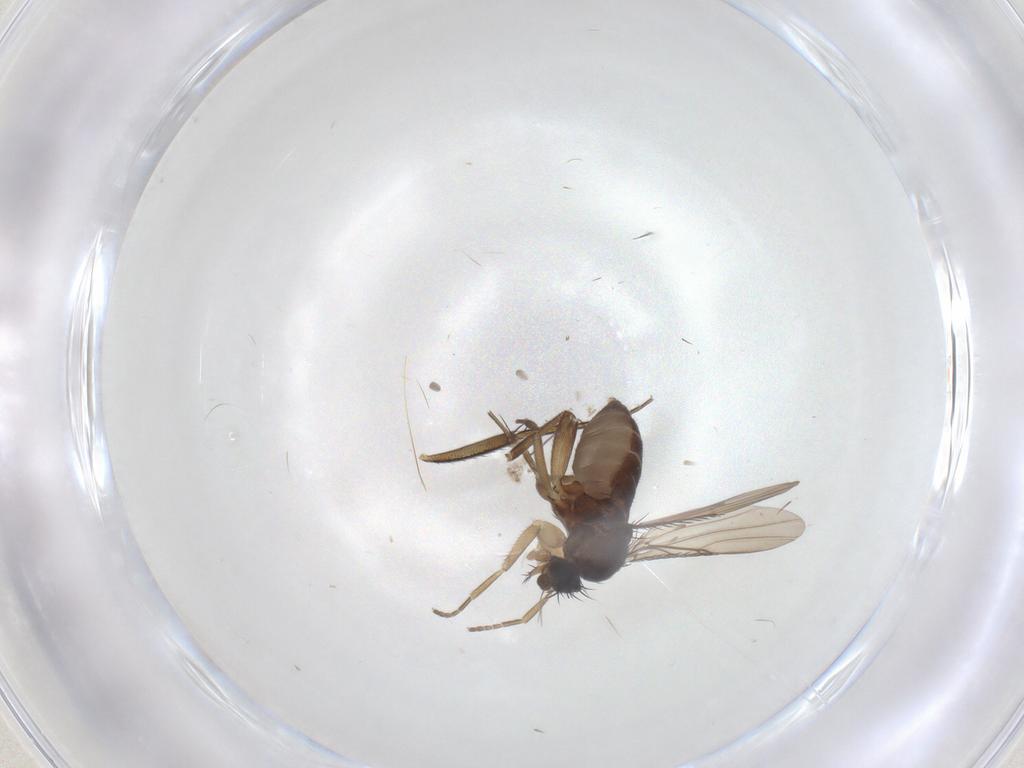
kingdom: Animalia
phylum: Arthropoda
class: Insecta
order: Diptera
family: Phoridae
